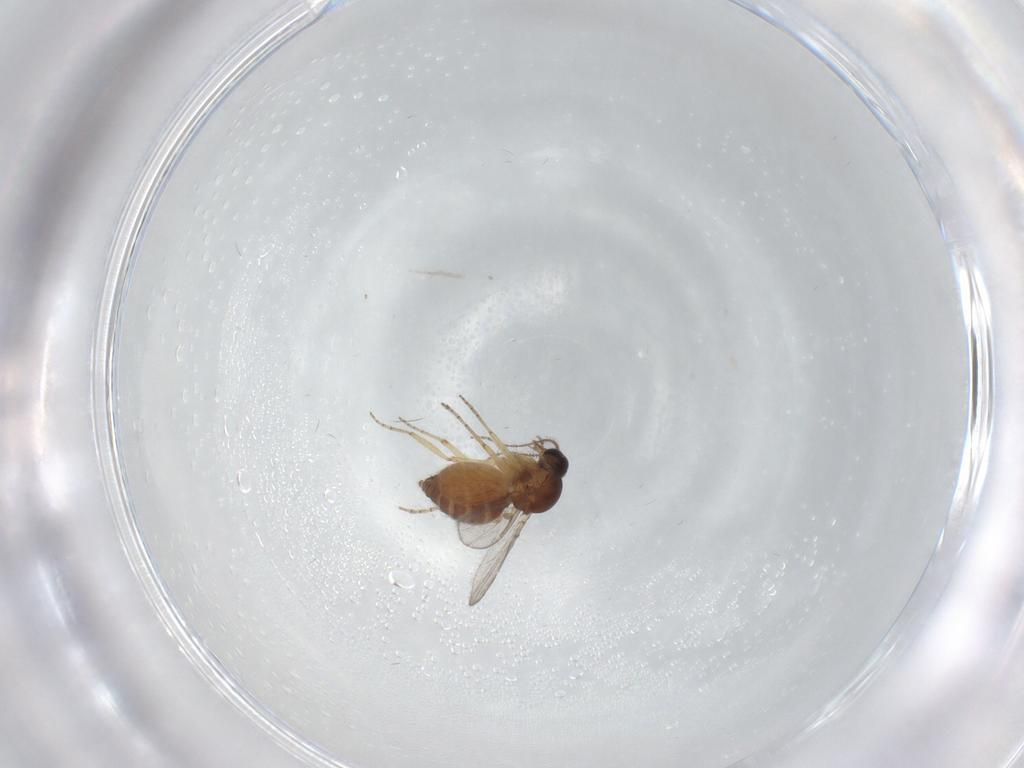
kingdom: Animalia
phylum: Arthropoda
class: Insecta
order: Diptera
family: Ceratopogonidae
